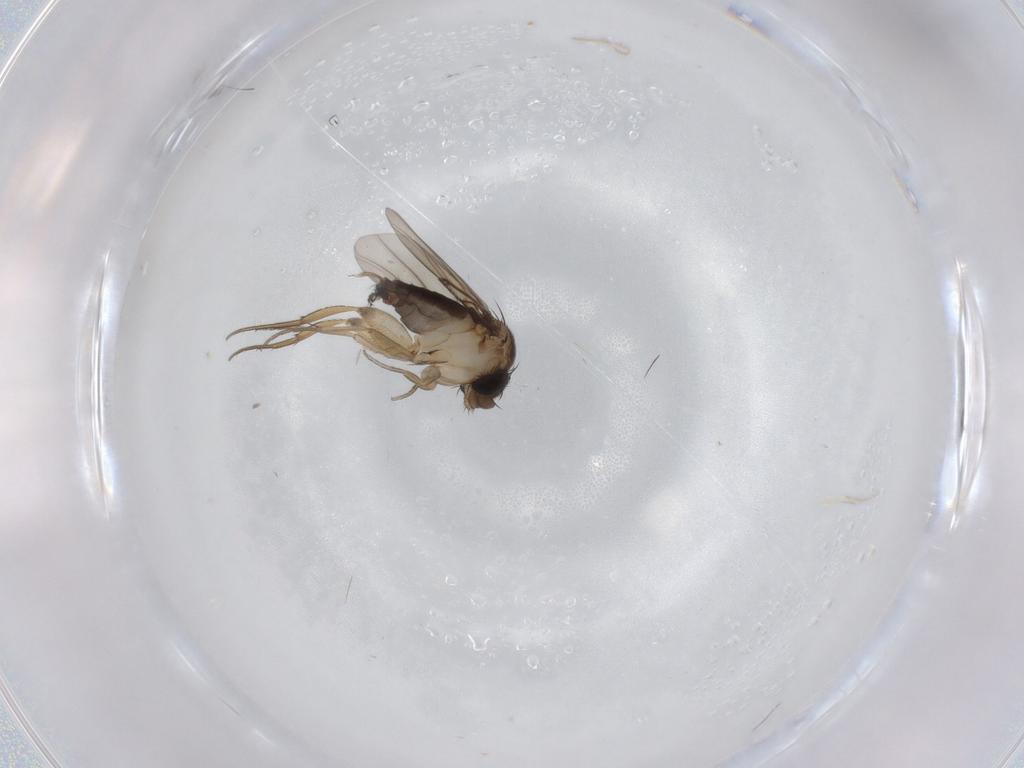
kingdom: Animalia
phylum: Arthropoda
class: Insecta
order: Diptera
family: Phoridae
